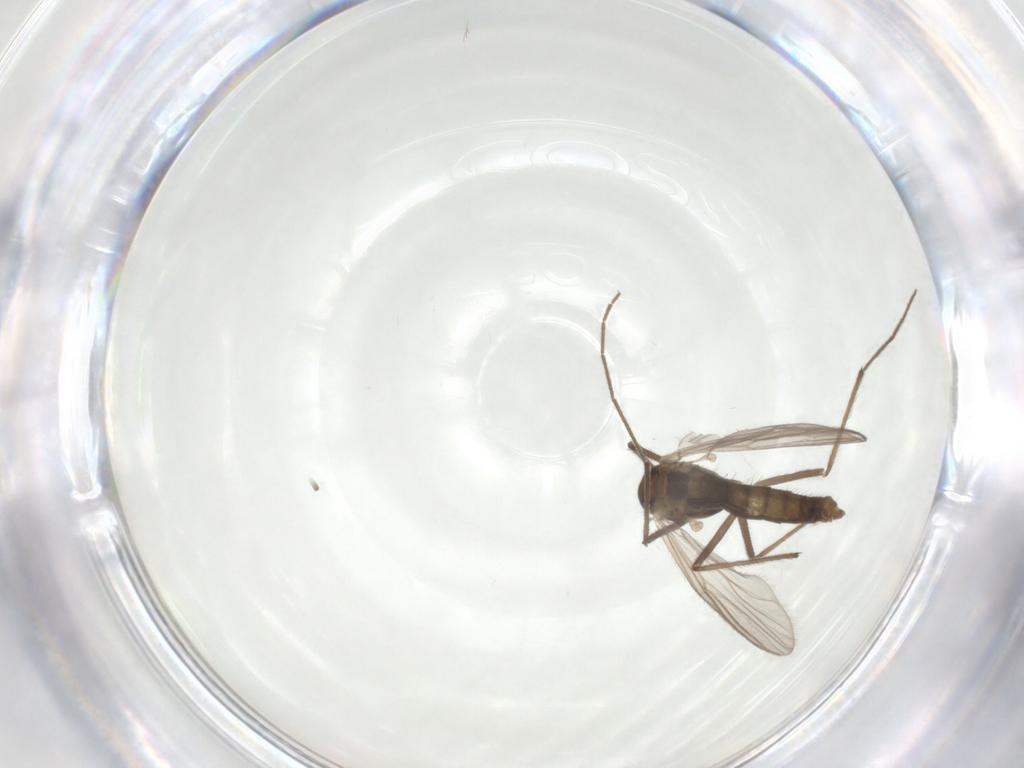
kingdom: Animalia
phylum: Arthropoda
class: Insecta
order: Diptera
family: Chironomidae
